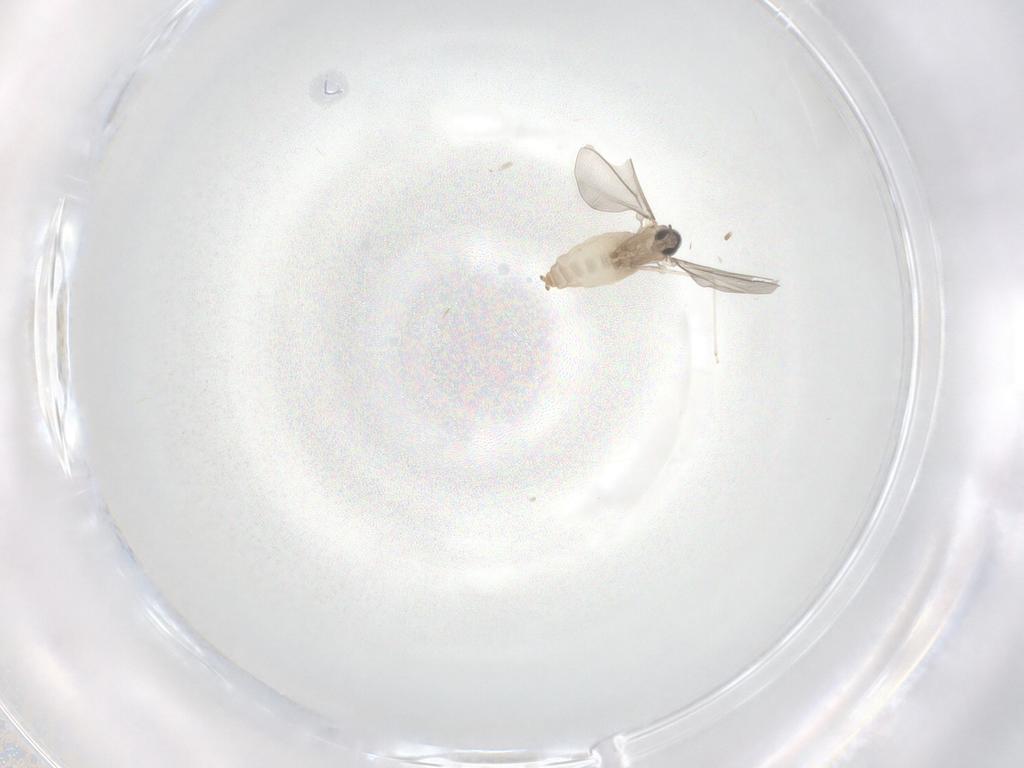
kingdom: Animalia
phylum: Arthropoda
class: Insecta
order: Diptera
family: Cecidomyiidae
